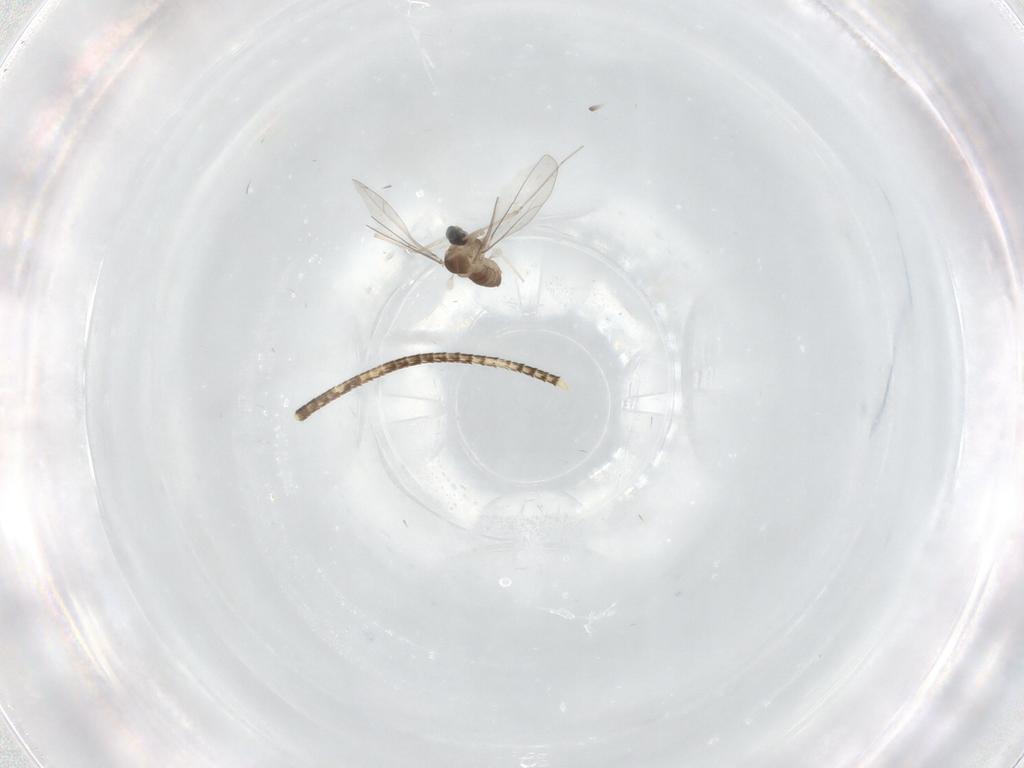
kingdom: Animalia
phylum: Arthropoda
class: Insecta
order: Diptera
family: Cecidomyiidae
